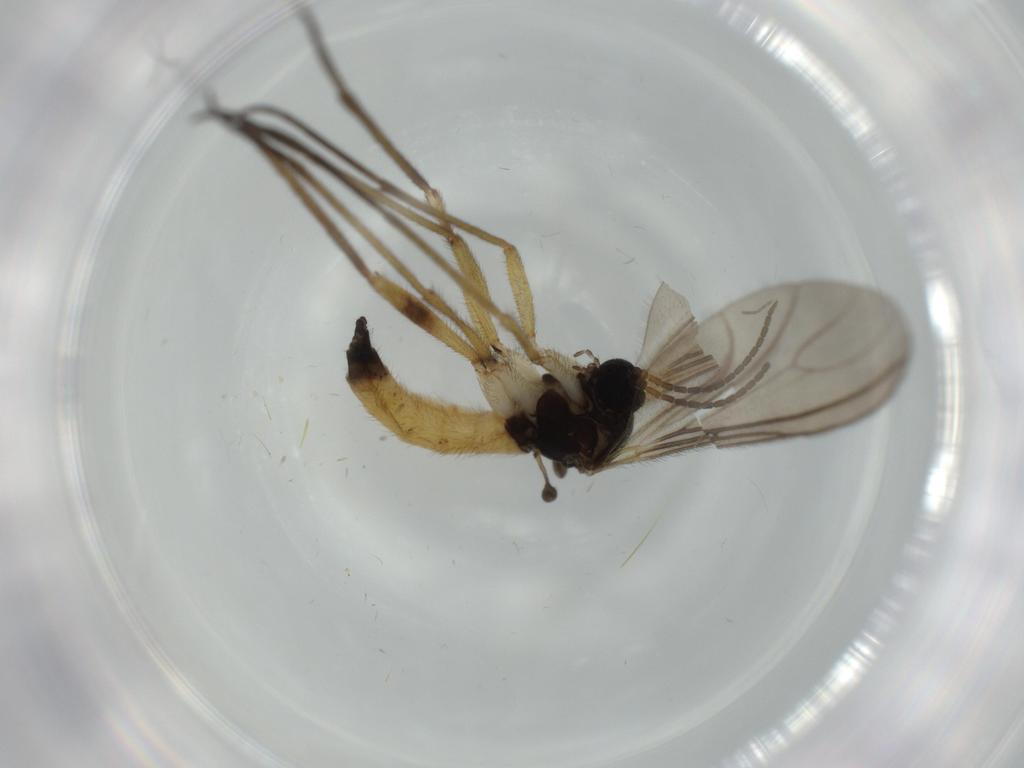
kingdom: Animalia
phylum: Arthropoda
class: Insecta
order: Diptera
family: Sciaridae
